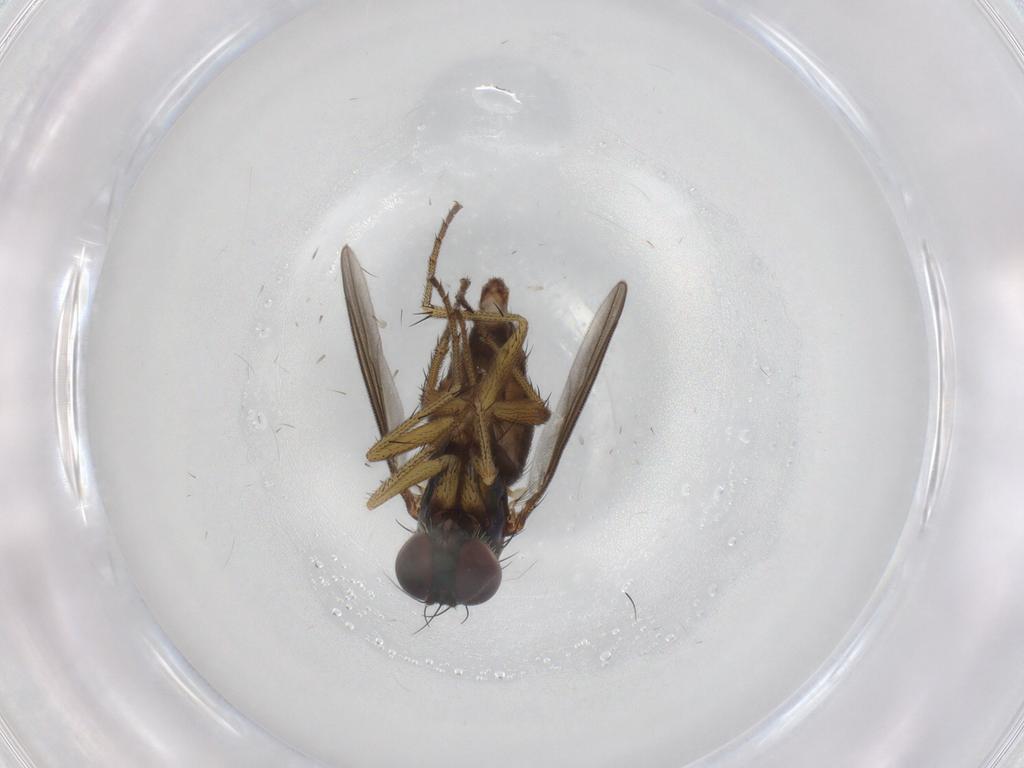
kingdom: Animalia
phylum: Arthropoda
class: Insecta
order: Diptera
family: Dolichopodidae
